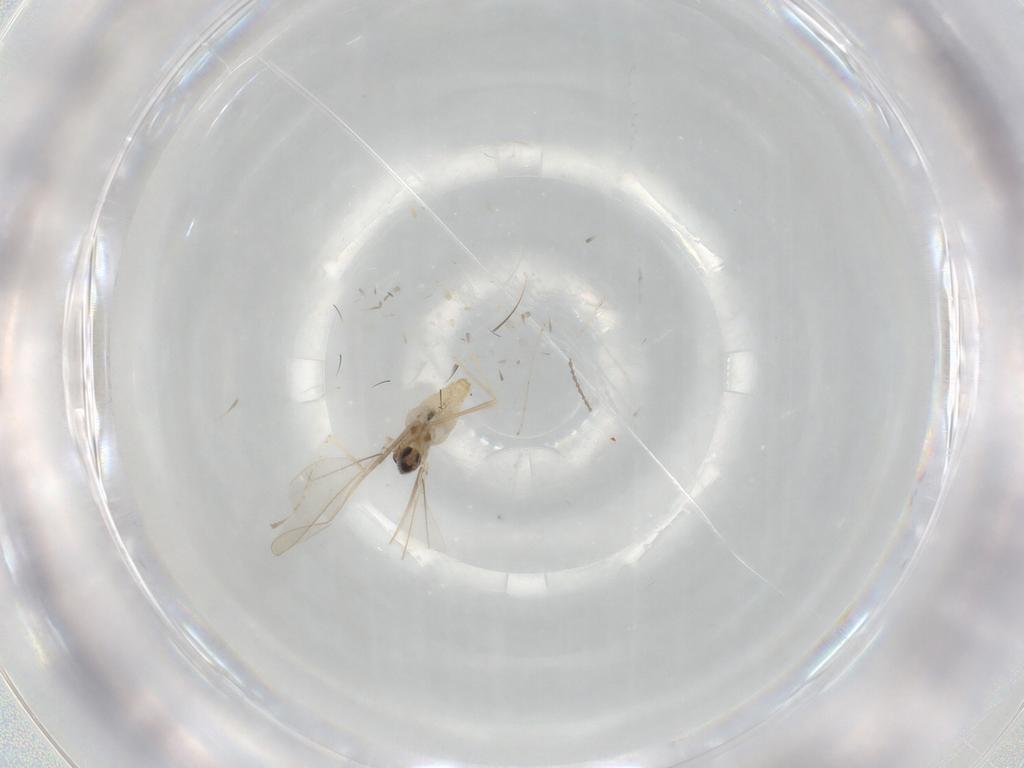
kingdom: Animalia
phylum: Arthropoda
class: Insecta
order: Diptera
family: Cecidomyiidae
